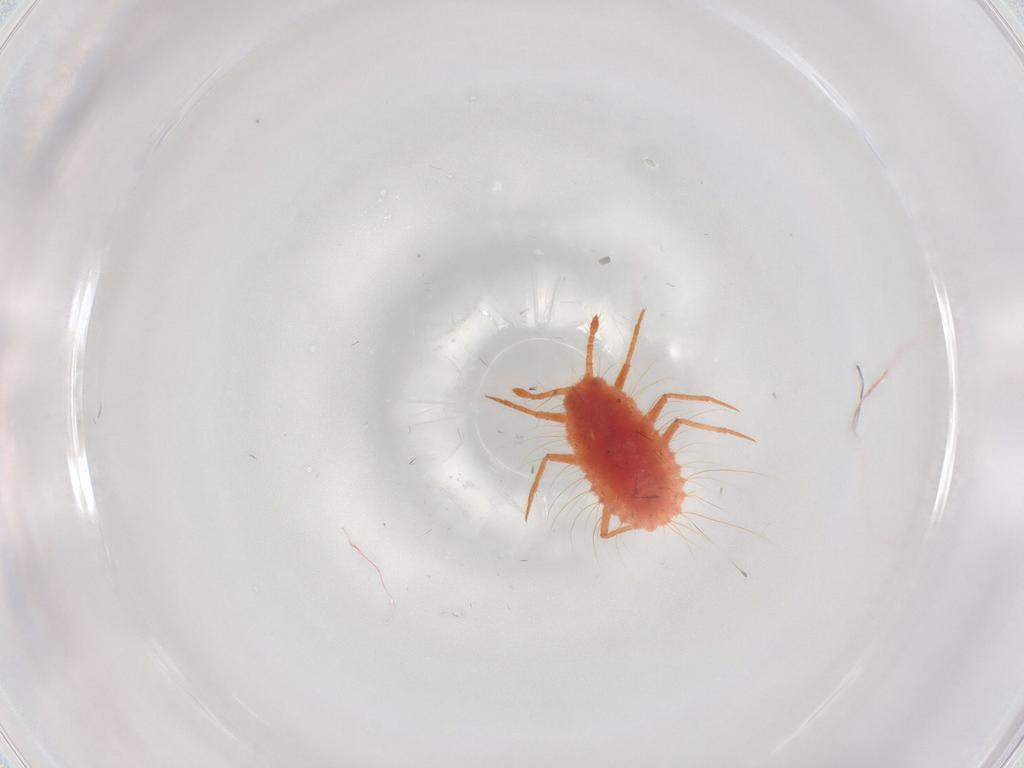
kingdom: Animalia
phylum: Arthropoda
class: Insecta
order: Hemiptera
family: Monophlebidae
